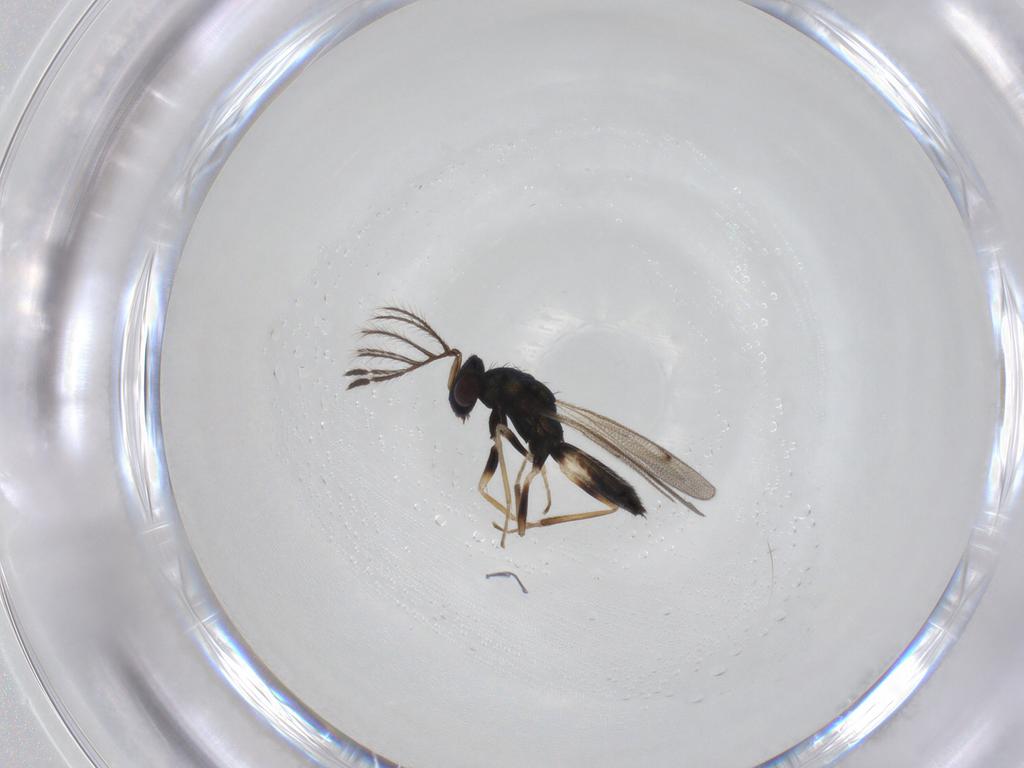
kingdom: Animalia
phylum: Arthropoda
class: Insecta
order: Hymenoptera
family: Eulophidae
